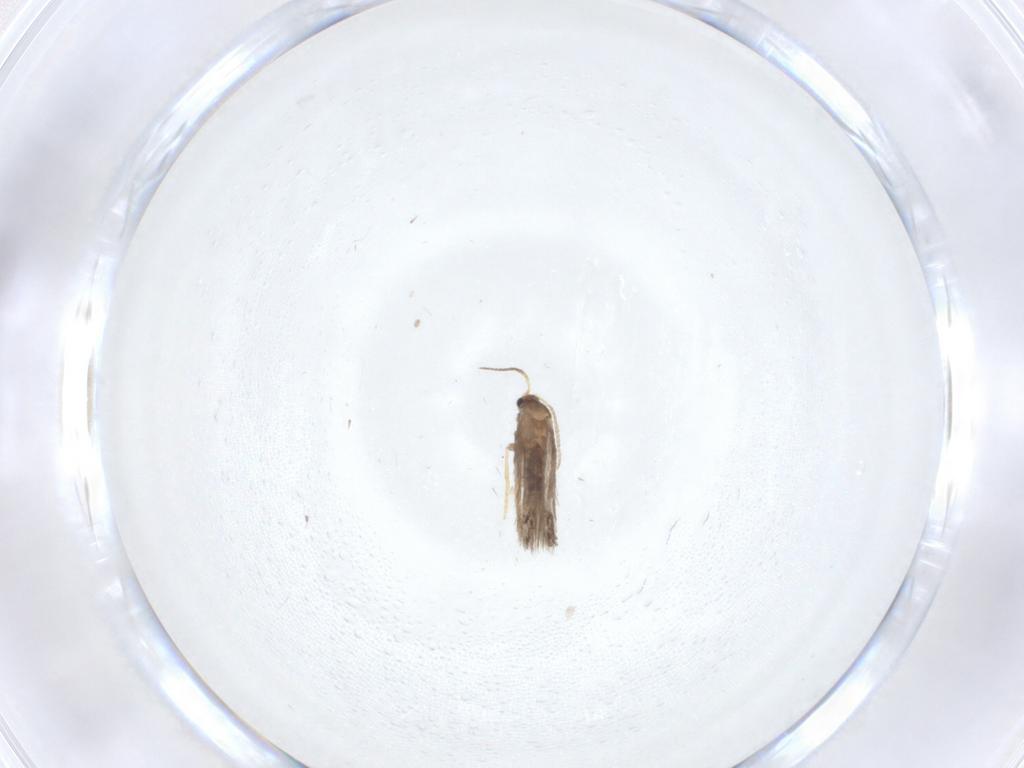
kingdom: Animalia
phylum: Arthropoda
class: Insecta
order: Lepidoptera
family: Nepticulidae
